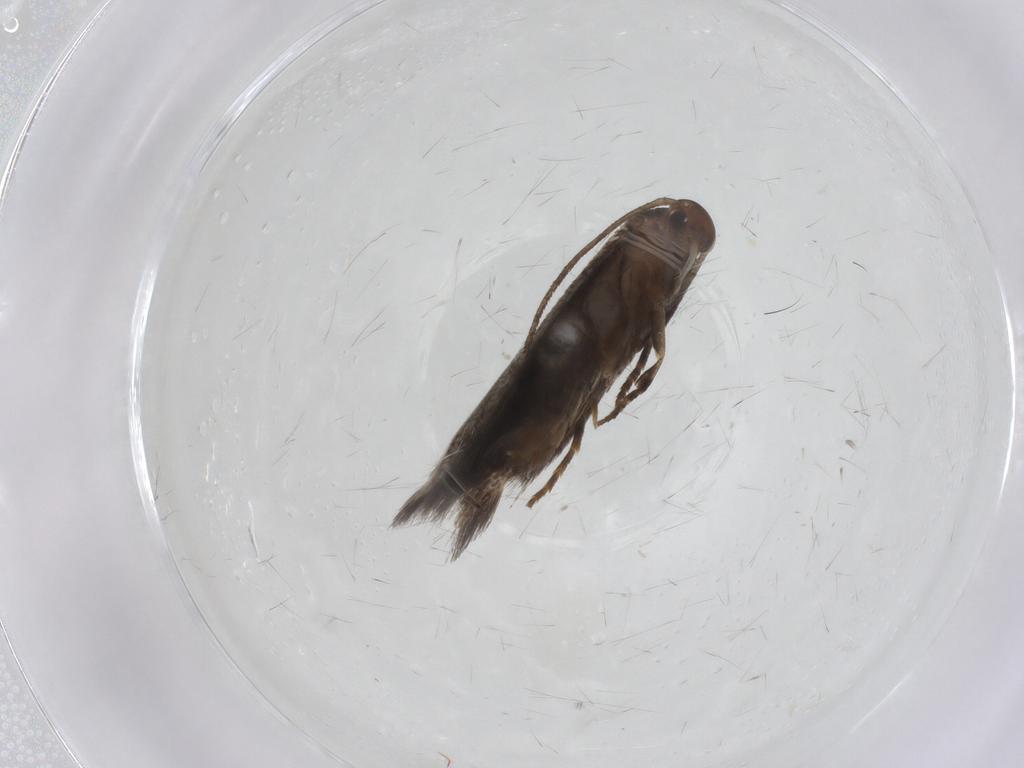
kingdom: Animalia
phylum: Arthropoda
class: Insecta
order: Lepidoptera
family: Elachistidae
